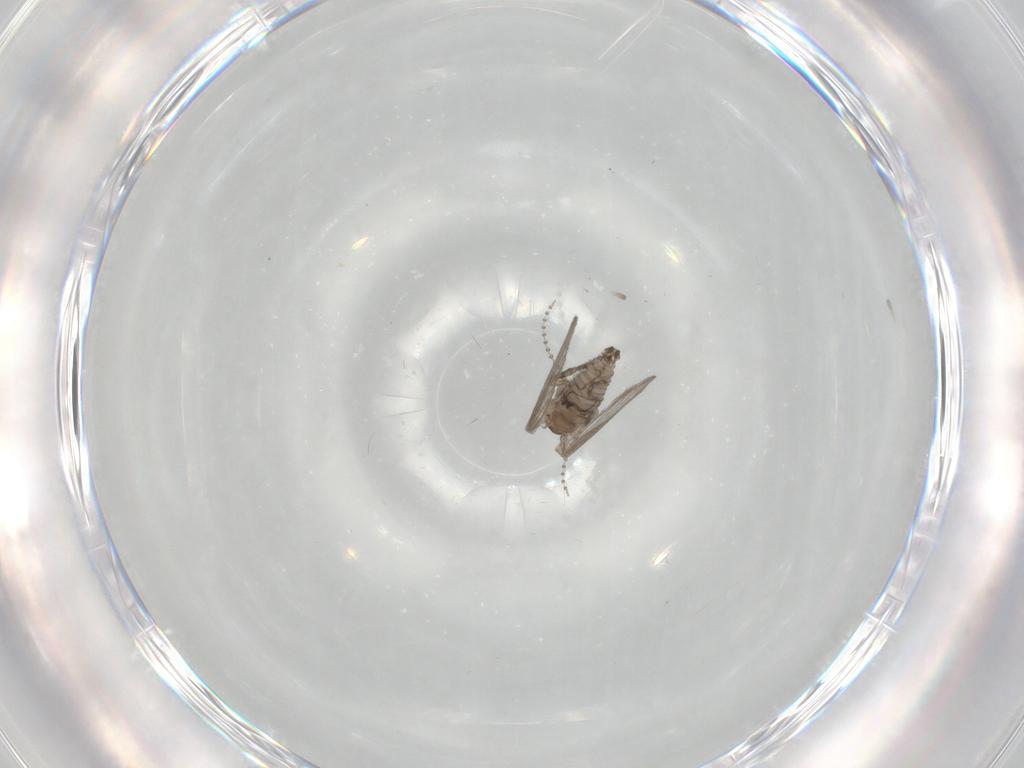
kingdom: Animalia
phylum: Arthropoda
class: Insecta
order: Diptera
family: Psychodidae
